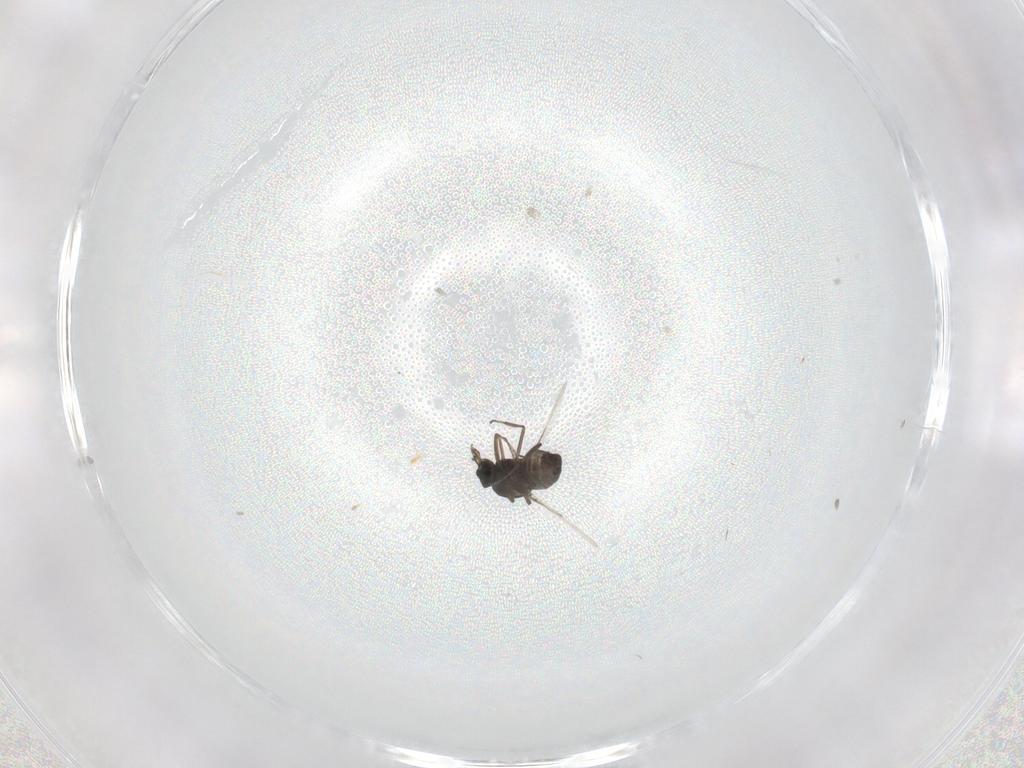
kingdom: Animalia
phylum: Arthropoda
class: Insecta
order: Diptera
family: Ceratopogonidae
